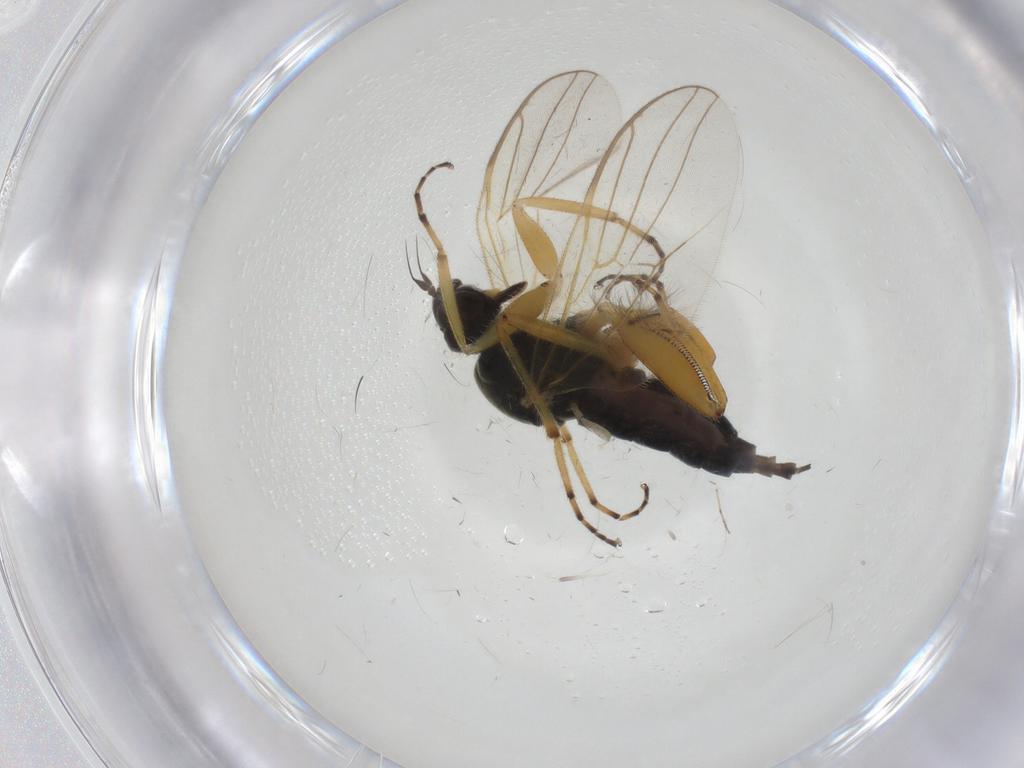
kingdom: Animalia
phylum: Arthropoda
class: Insecta
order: Diptera
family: Hybotidae
